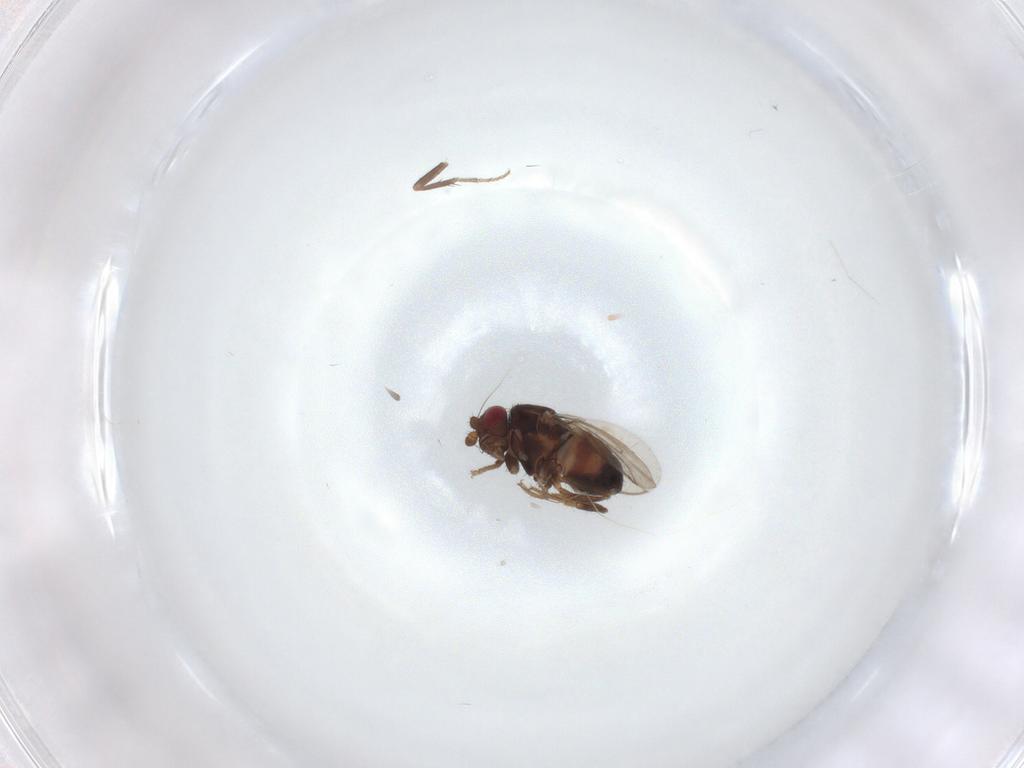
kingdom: Animalia
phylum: Arthropoda
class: Insecta
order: Diptera
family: Sphaeroceridae
